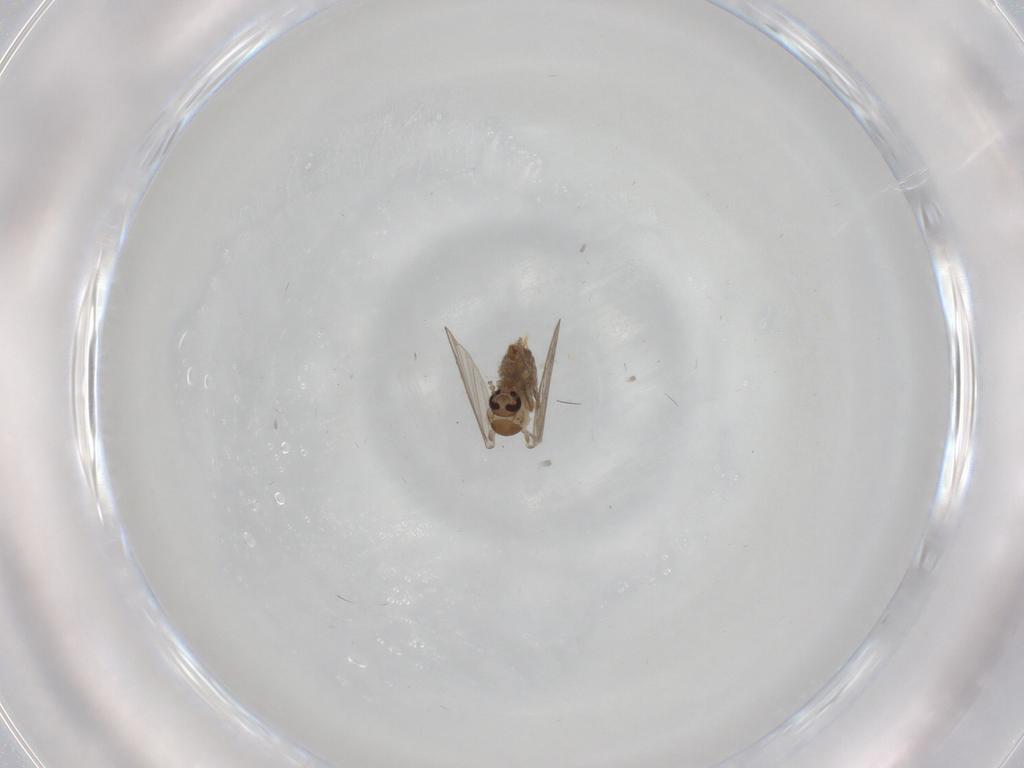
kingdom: Animalia
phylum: Arthropoda
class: Insecta
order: Diptera
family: Psychodidae
